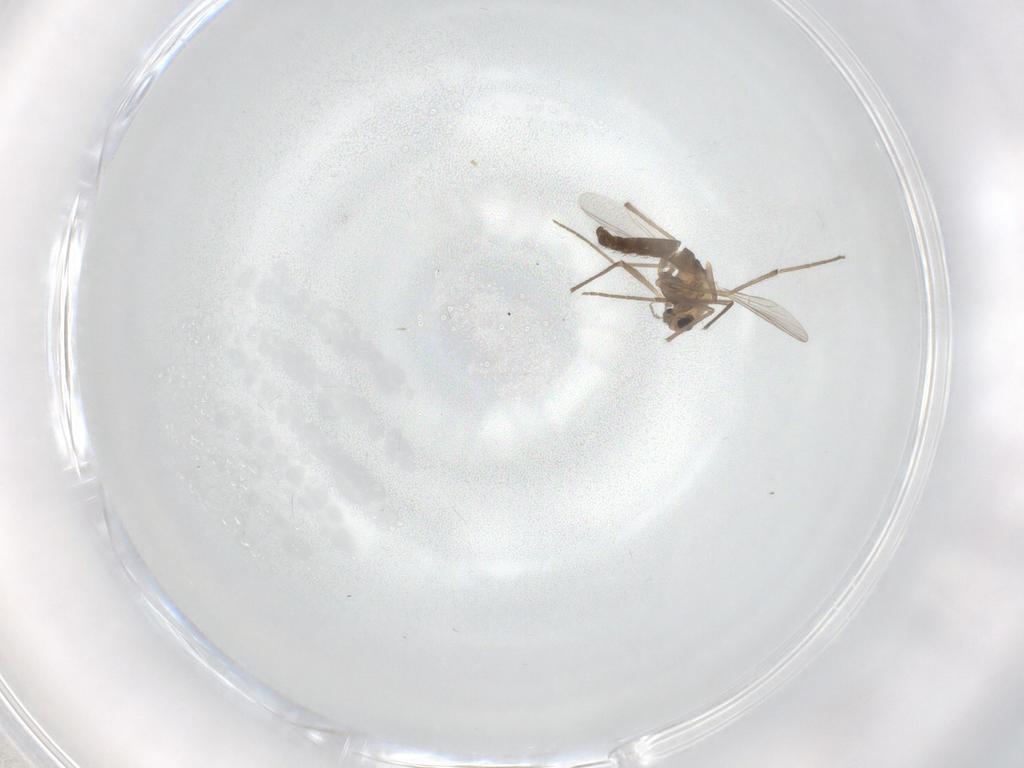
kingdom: Animalia
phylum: Arthropoda
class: Insecta
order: Diptera
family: Chironomidae
